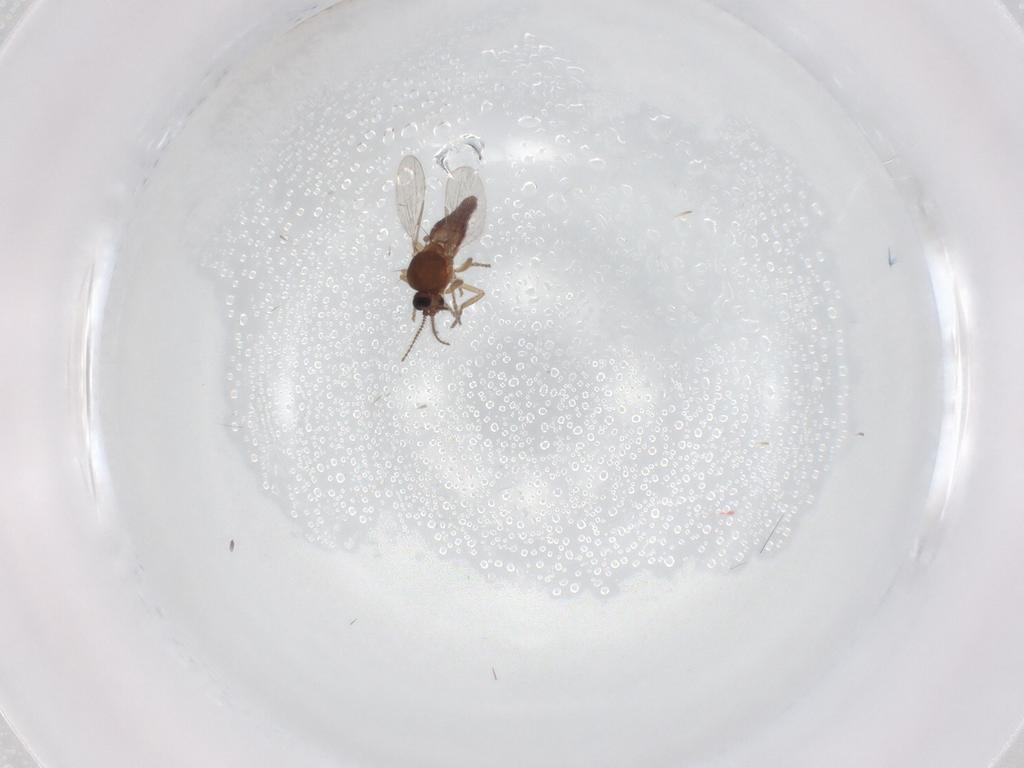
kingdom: Animalia
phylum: Arthropoda
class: Insecta
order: Diptera
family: Ceratopogonidae
